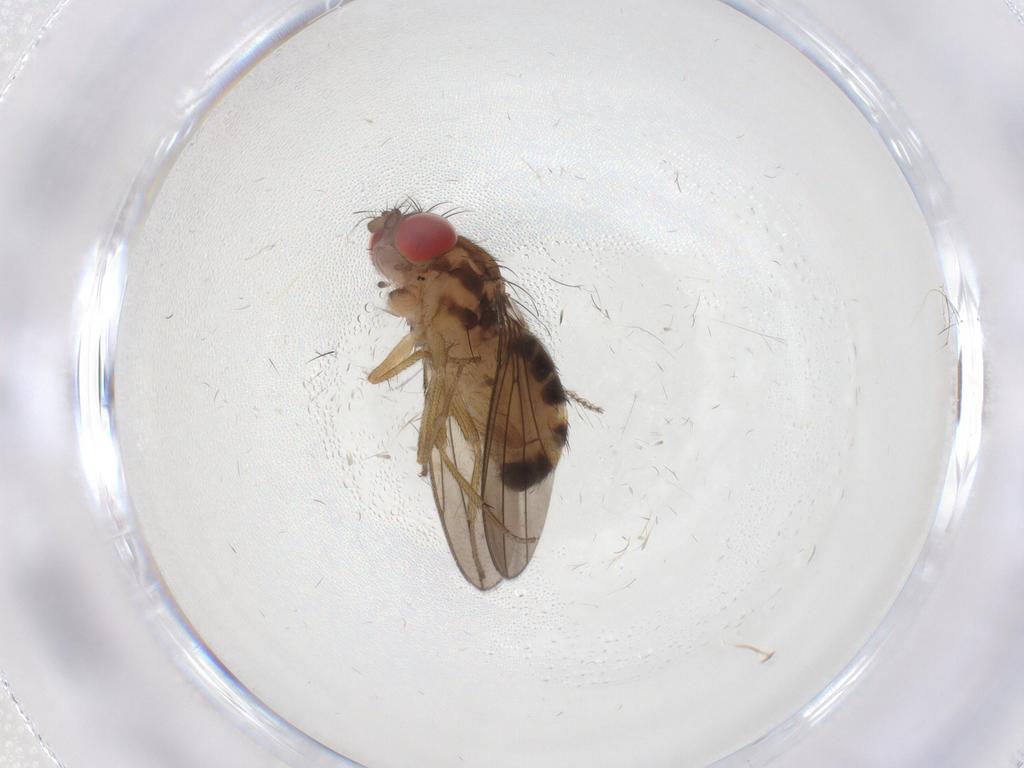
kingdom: Animalia
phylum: Arthropoda
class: Insecta
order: Diptera
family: Drosophilidae
